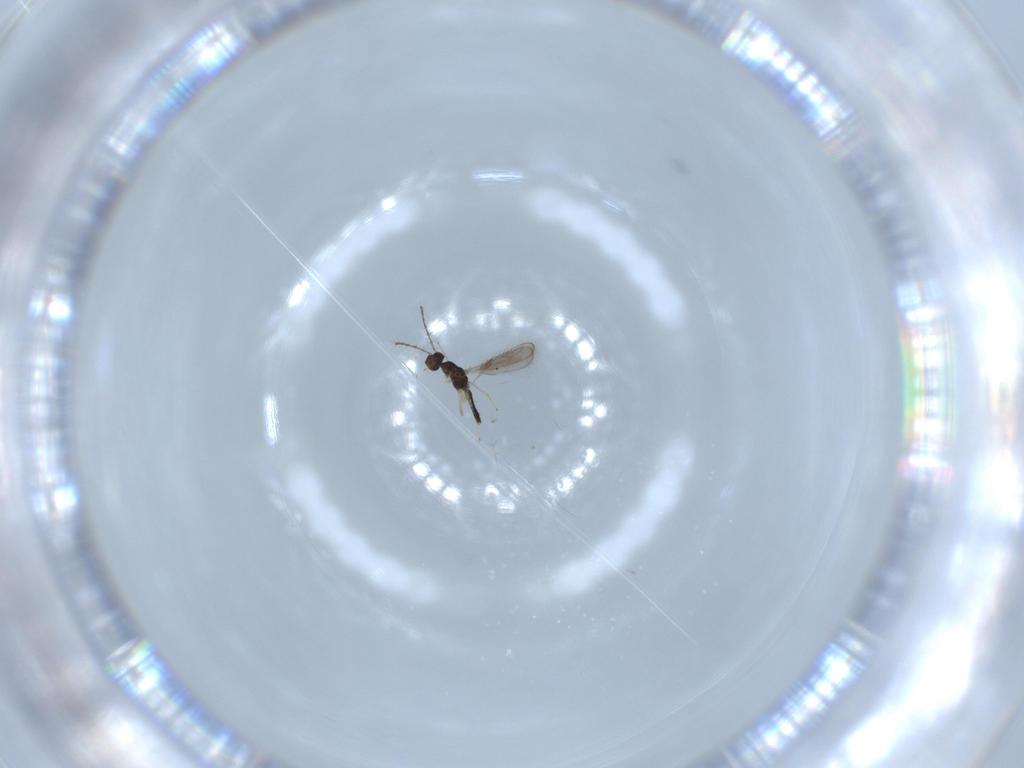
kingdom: Animalia
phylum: Arthropoda
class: Insecta
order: Hymenoptera
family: Pteromalidae
